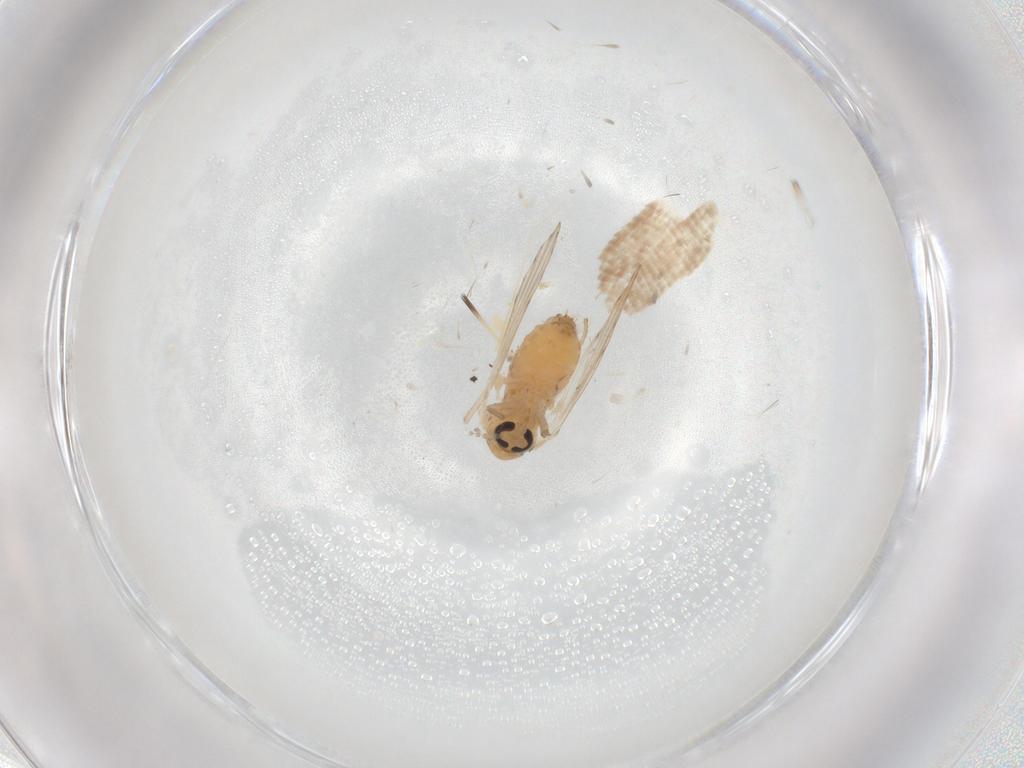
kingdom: Animalia
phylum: Arthropoda
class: Insecta
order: Diptera
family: Psychodidae
